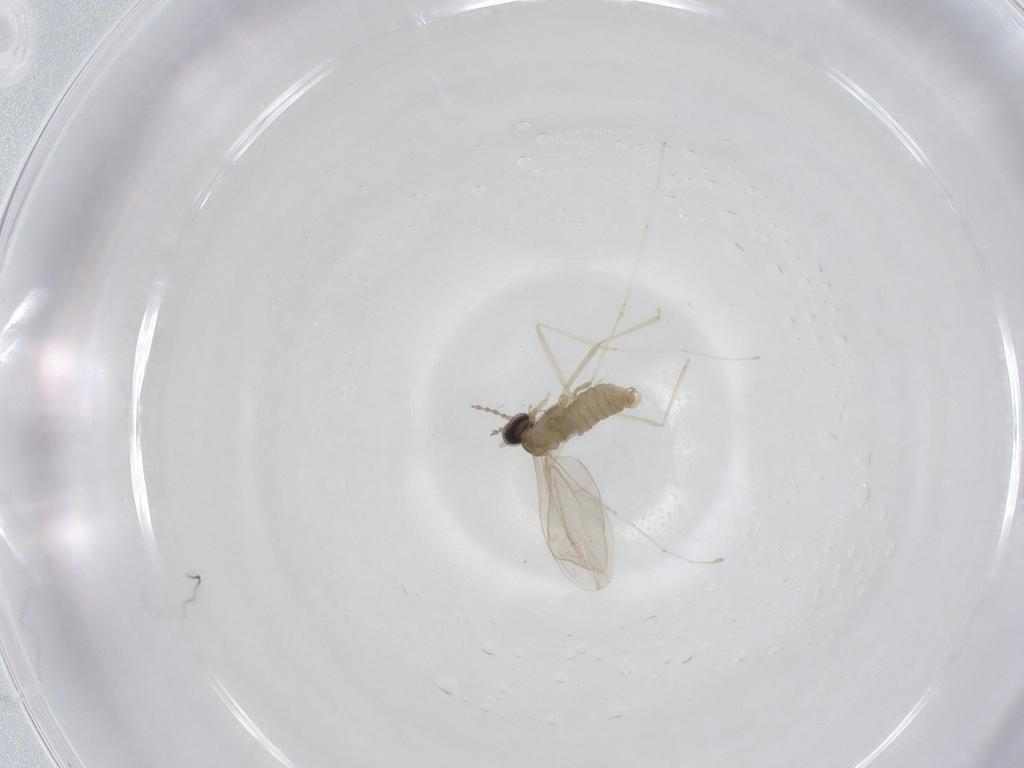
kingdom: Animalia
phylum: Arthropoda
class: Insecta
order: Diptera
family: Cecidomyiidae
